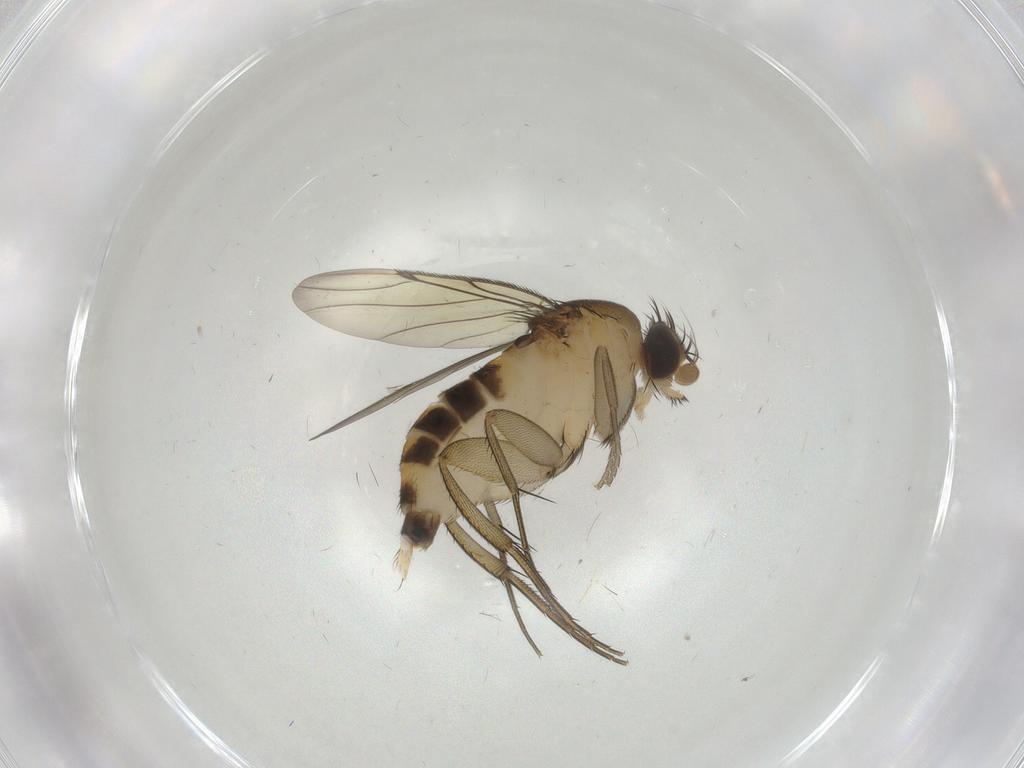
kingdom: Animalia
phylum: Arthropoda
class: Insecta
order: Diptera
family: Phoridae
